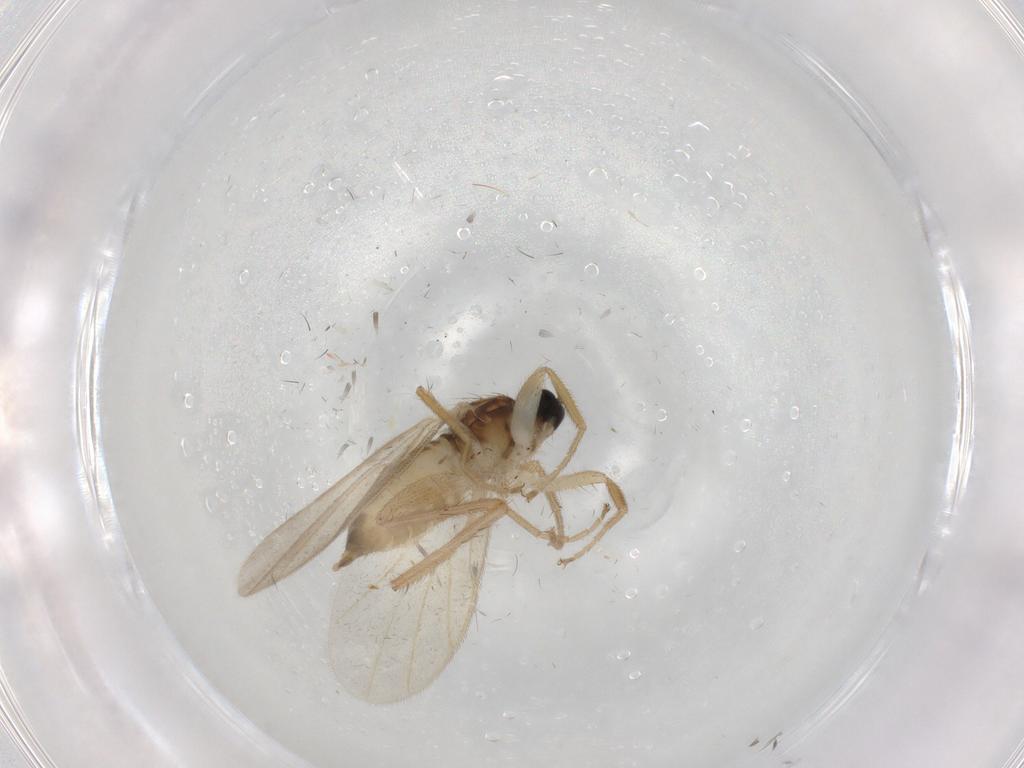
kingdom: Animalia
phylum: Arthropoda
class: Insecta
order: Diptera
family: Hybotidae
